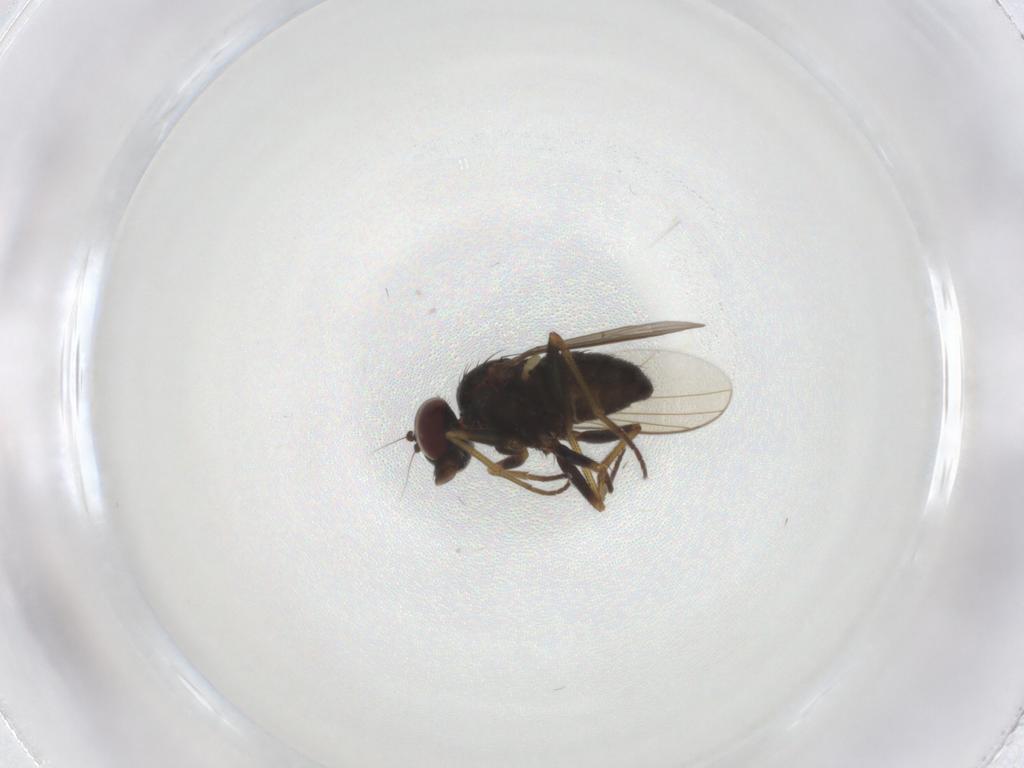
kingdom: Animalia
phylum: Arthropoda
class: Insecta
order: Diptera
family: Dolichopodidae
